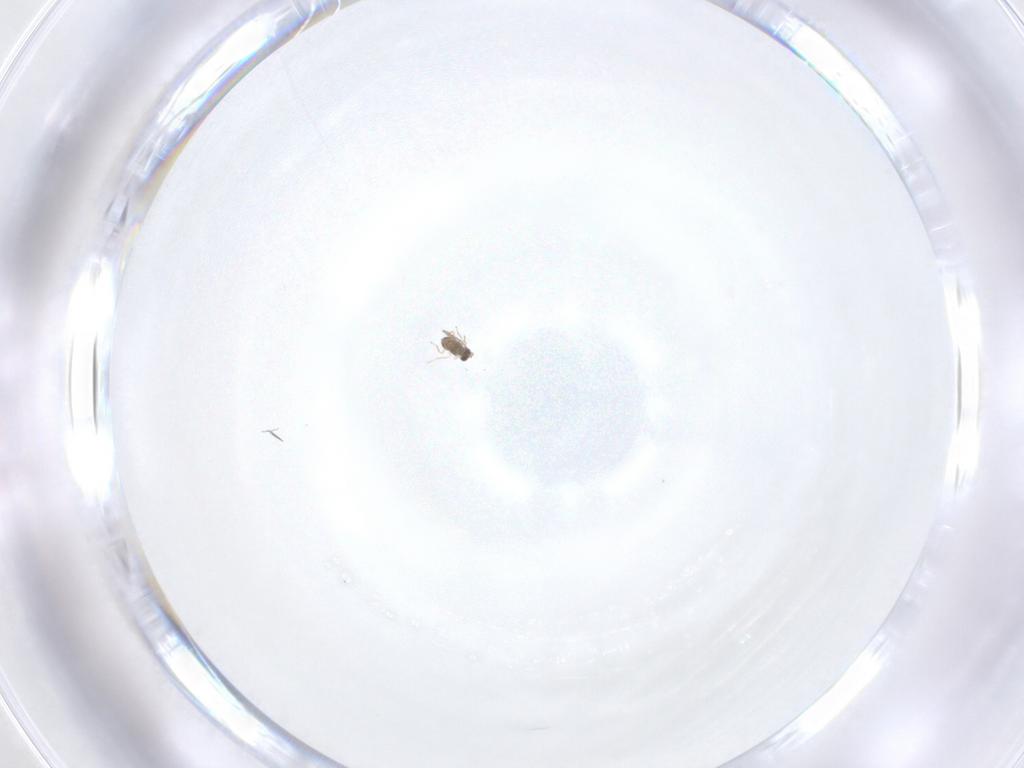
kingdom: Animalia
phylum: Arthropoda
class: Insecta
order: Hymenoptera
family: Mymaridae
